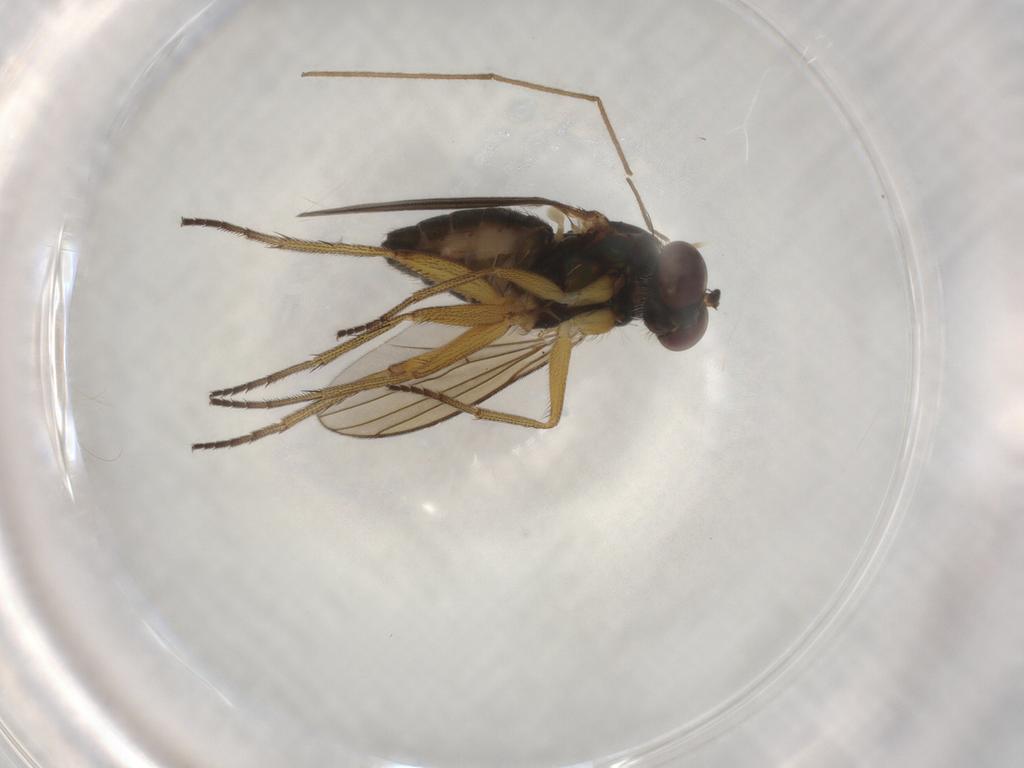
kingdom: Animalia
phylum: Arthropoda
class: Insecta
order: Diptera
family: Dolichopodidae
